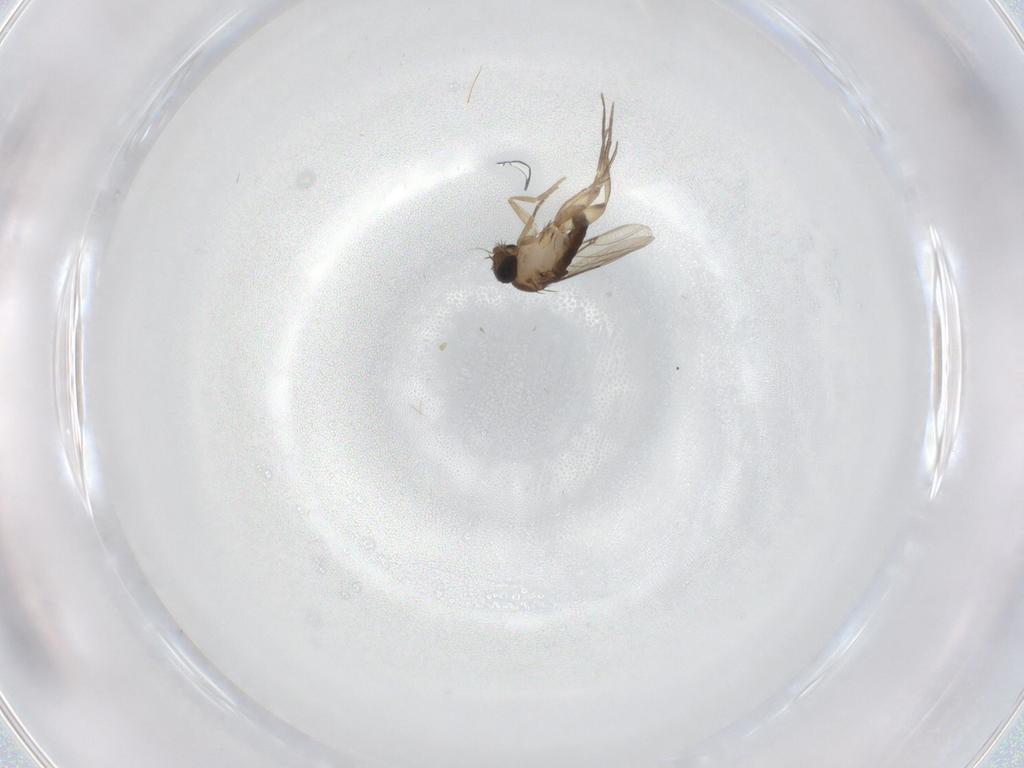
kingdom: Animalia
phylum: Arthropoda
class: Insecta
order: Diptera
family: Phoridae
